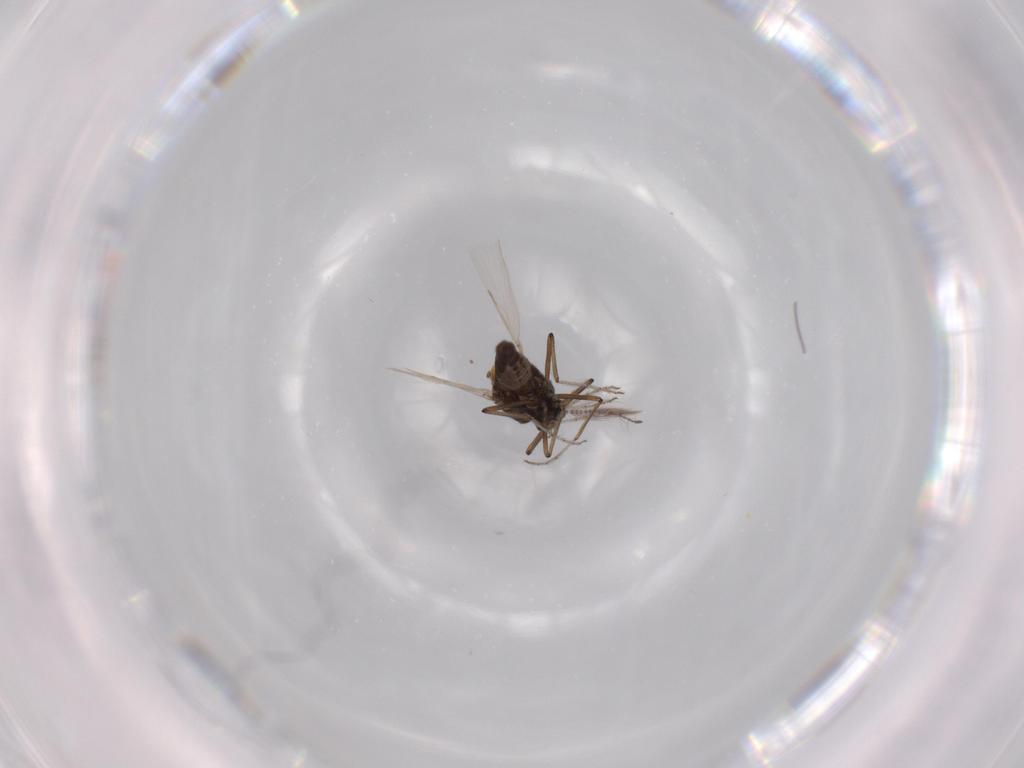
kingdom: Animalia
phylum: Arthropoda
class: Insecta
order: Diptera
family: Ceratopogonidae
